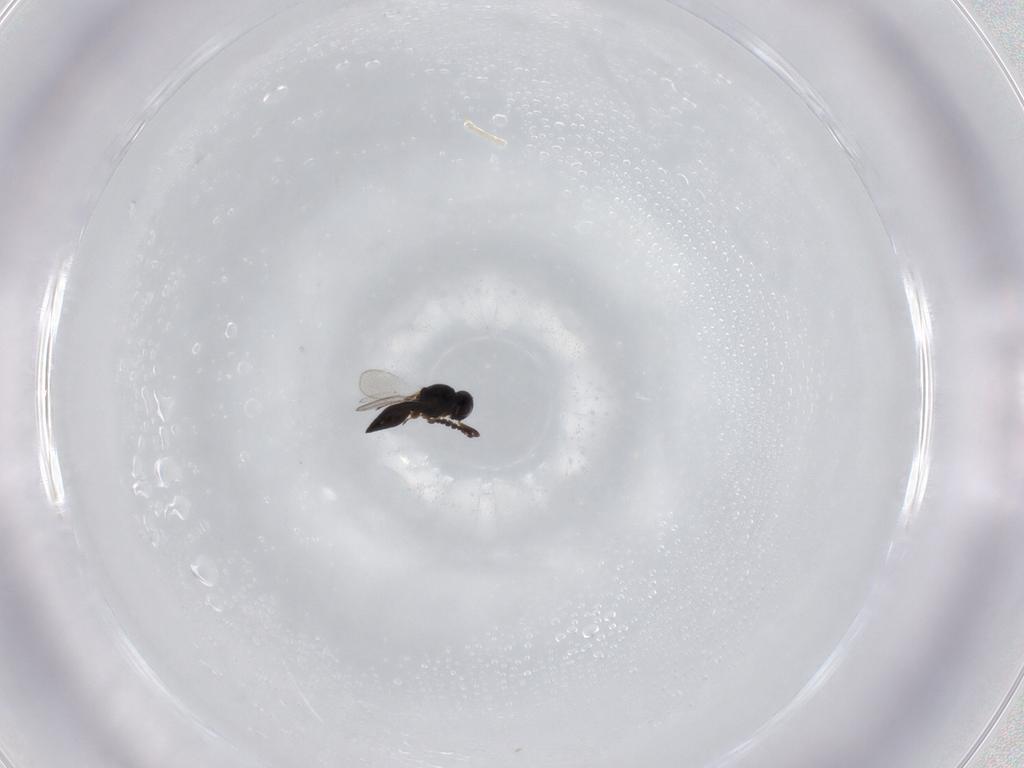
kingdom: Animalia
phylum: Arthropoda
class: Insecta
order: Hymenoptera
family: Platygastridae
